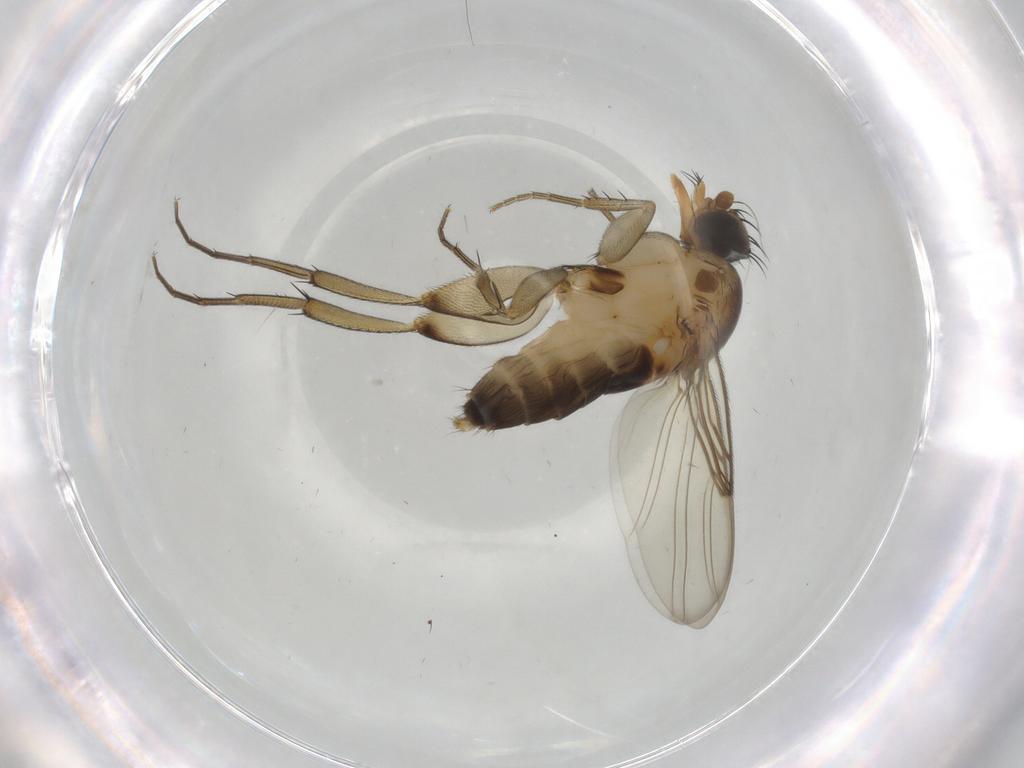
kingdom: Animalia
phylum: Arthropoda
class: Insecta
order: Diptera
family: Phoridae
